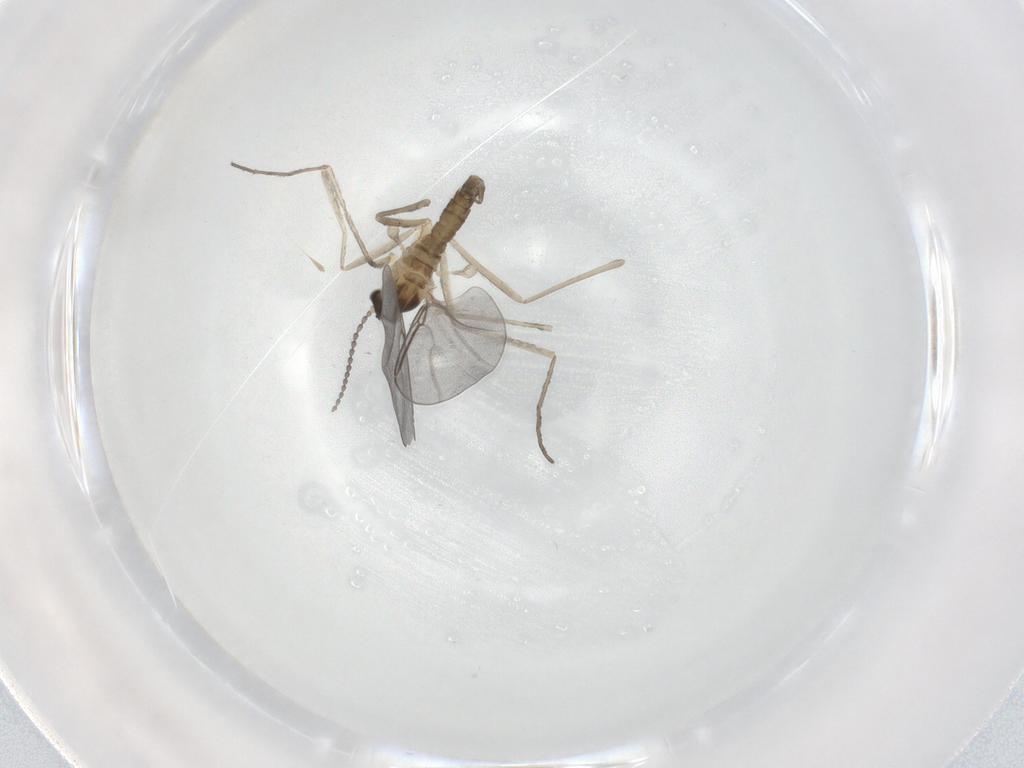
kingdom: Animalia
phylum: Arthropoda
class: Insecta
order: Diptera
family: Cecidomyiidae
